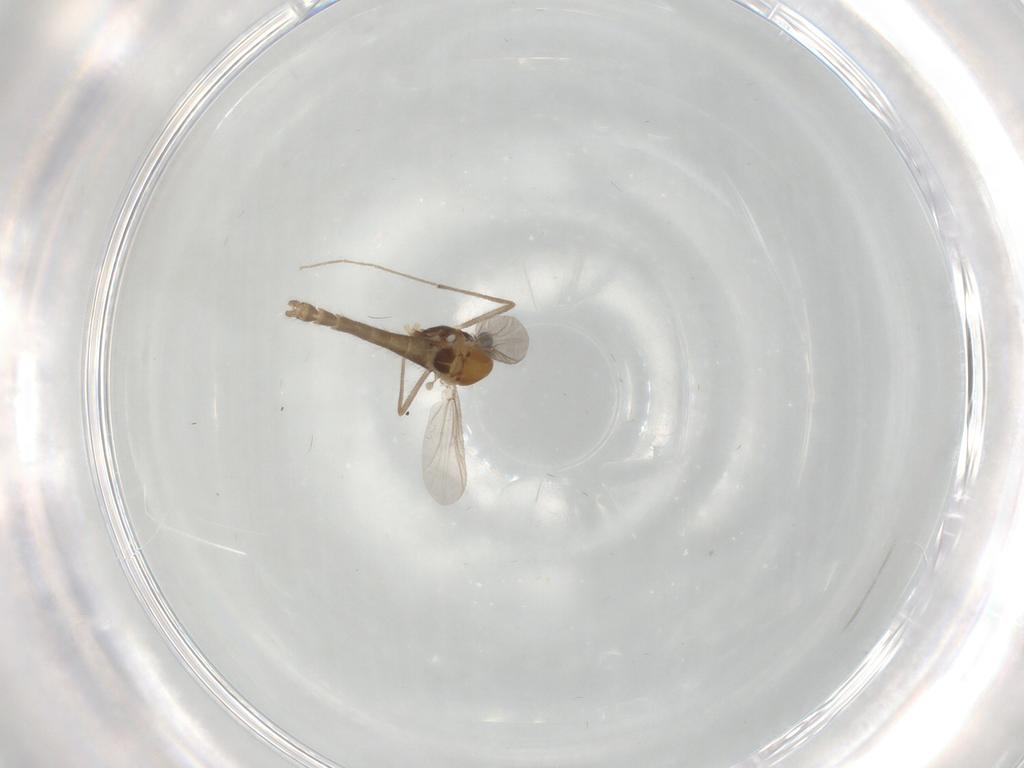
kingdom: Animalia
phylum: Arthropoda
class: Insecta
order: Diptera
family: Chironomidae
